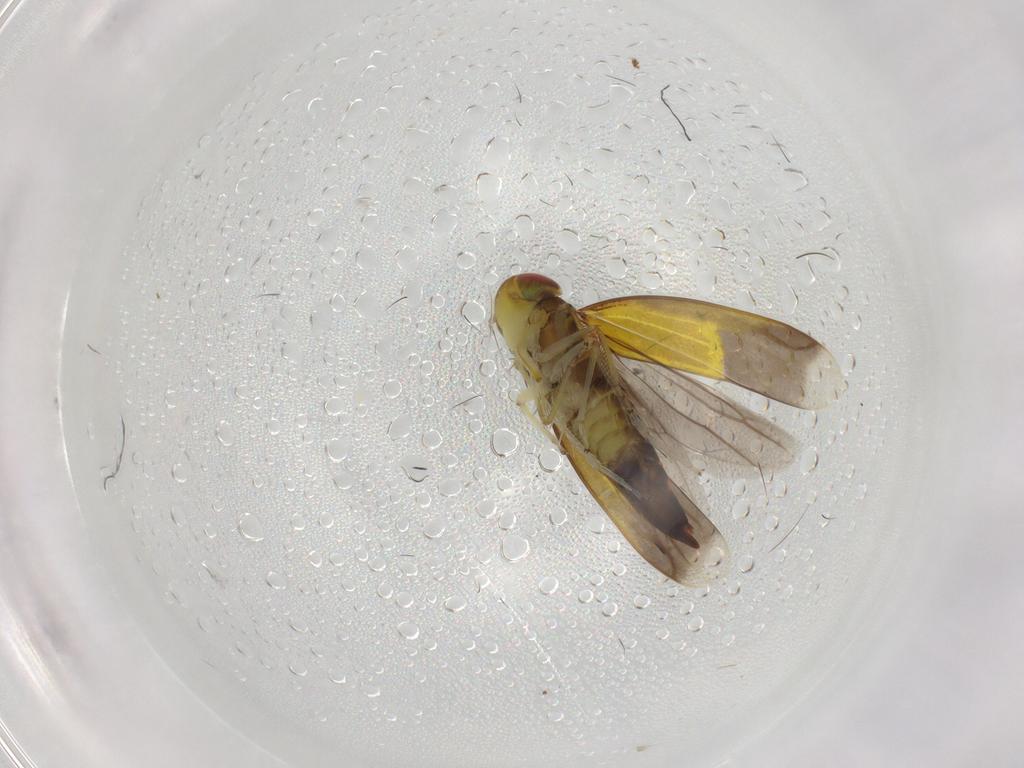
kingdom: Animalia
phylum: Arthropoda
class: Insecta
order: Hemiptera
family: Cicadellidae
